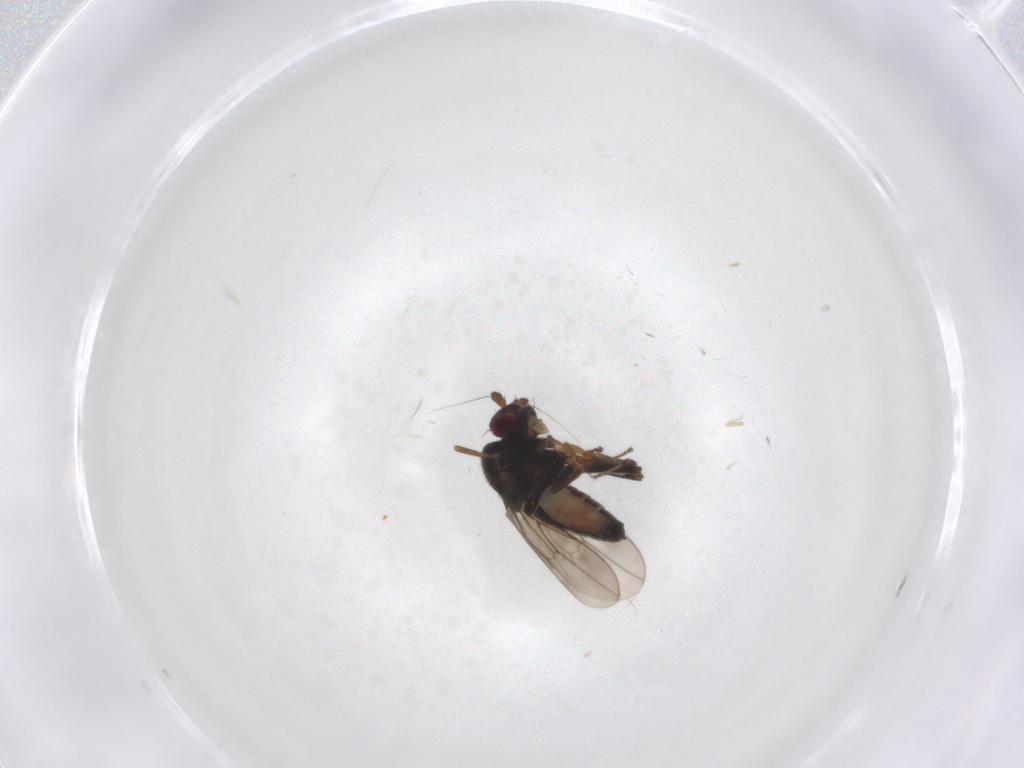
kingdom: Animalia
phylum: Arthropoda
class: Insecta
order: Diptera
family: Sphaeroceridae
